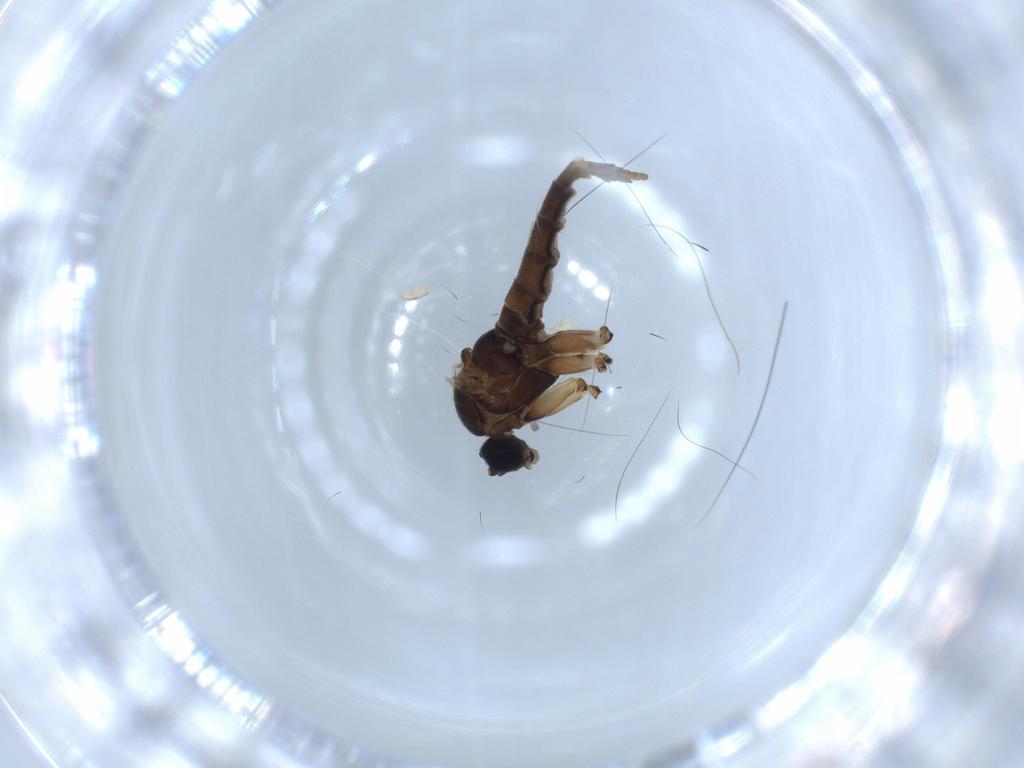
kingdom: Animalia
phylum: Arthropoda
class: Insecta
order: Diptera
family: Sciaridae
